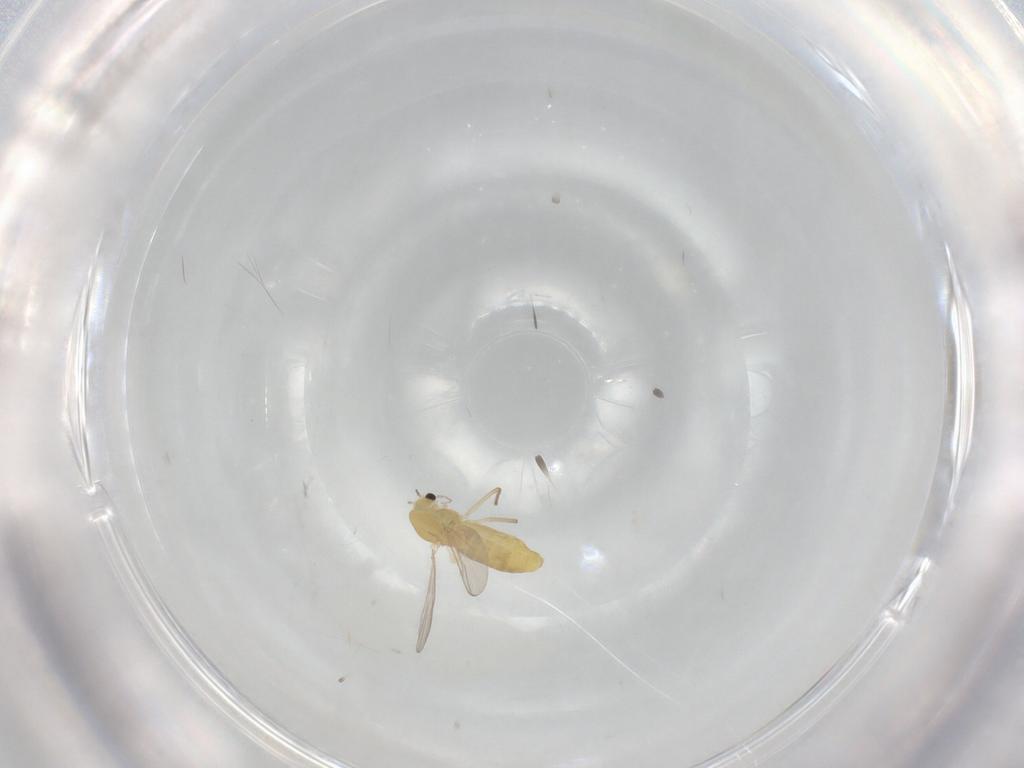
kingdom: Animalia
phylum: Arthropoda
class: Insecta
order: Diptera
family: Chironomidae
